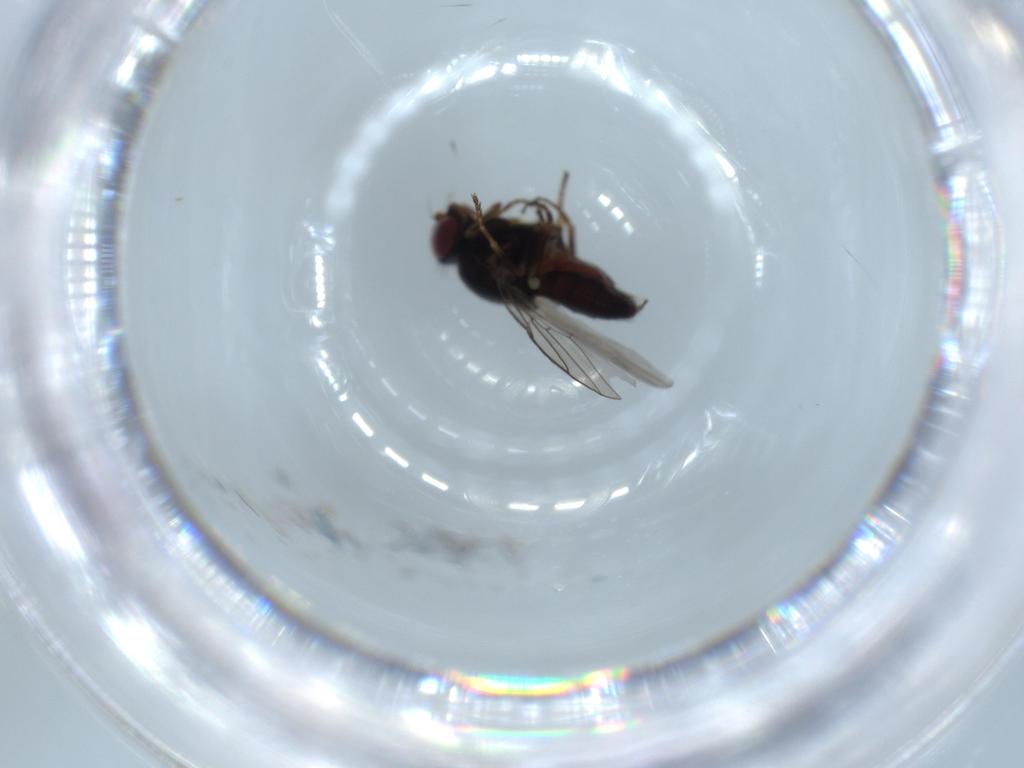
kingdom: Animalia
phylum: Arthropoda
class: Insecta
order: Diptera
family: Chloropidae
